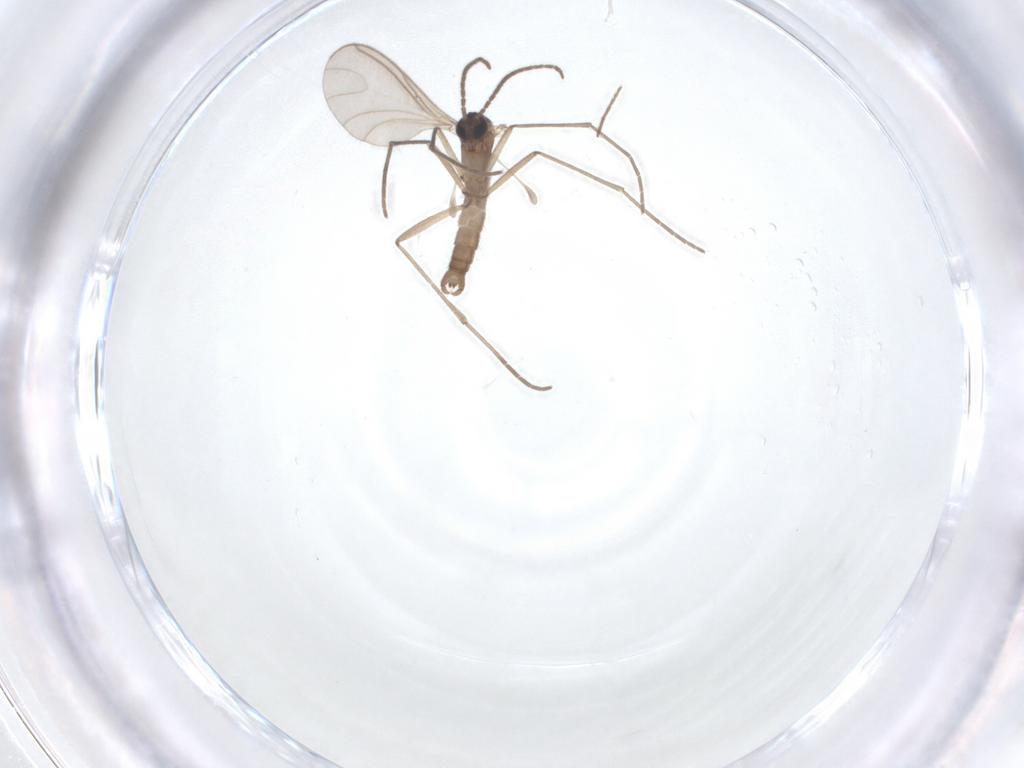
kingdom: Animalia
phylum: Arthropoda
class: Insecta
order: Diptera
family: Sciaridae
